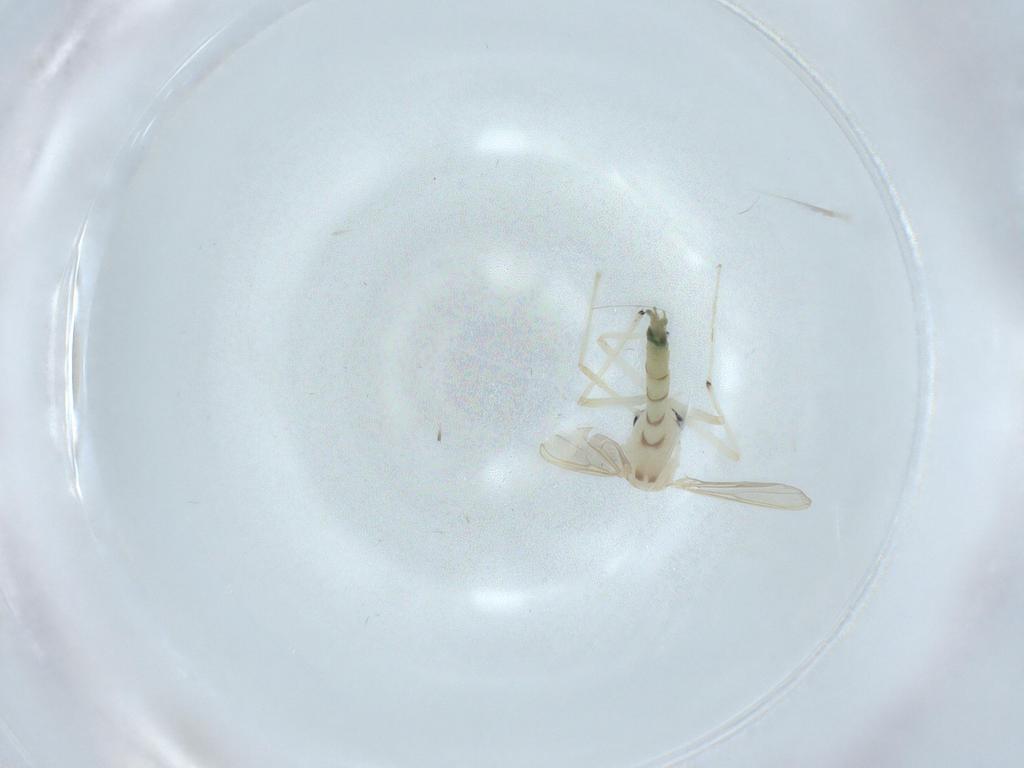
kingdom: Animalia
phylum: Arthropoda
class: Insecta
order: Diptera
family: Chironomidae
